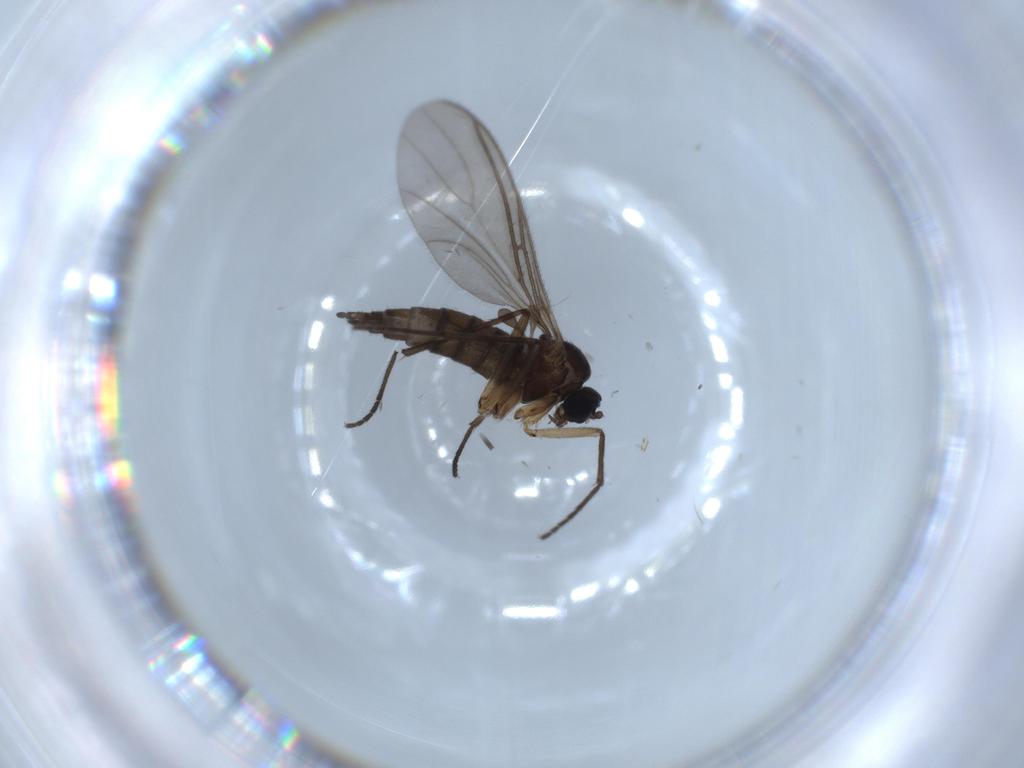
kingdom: Animalia
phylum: Arthropoda
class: Insecta
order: Diptera
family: Sciaridae
